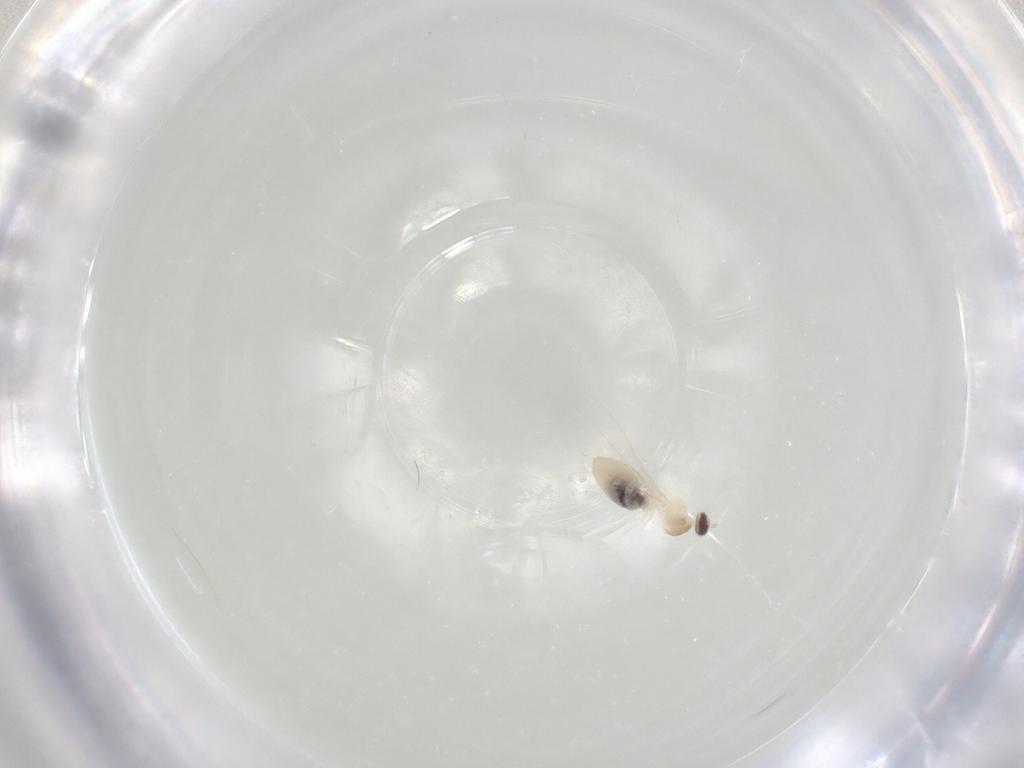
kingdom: Animalia
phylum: Arthropoda
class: Insecta
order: Diptera
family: Cecidomyiidae
